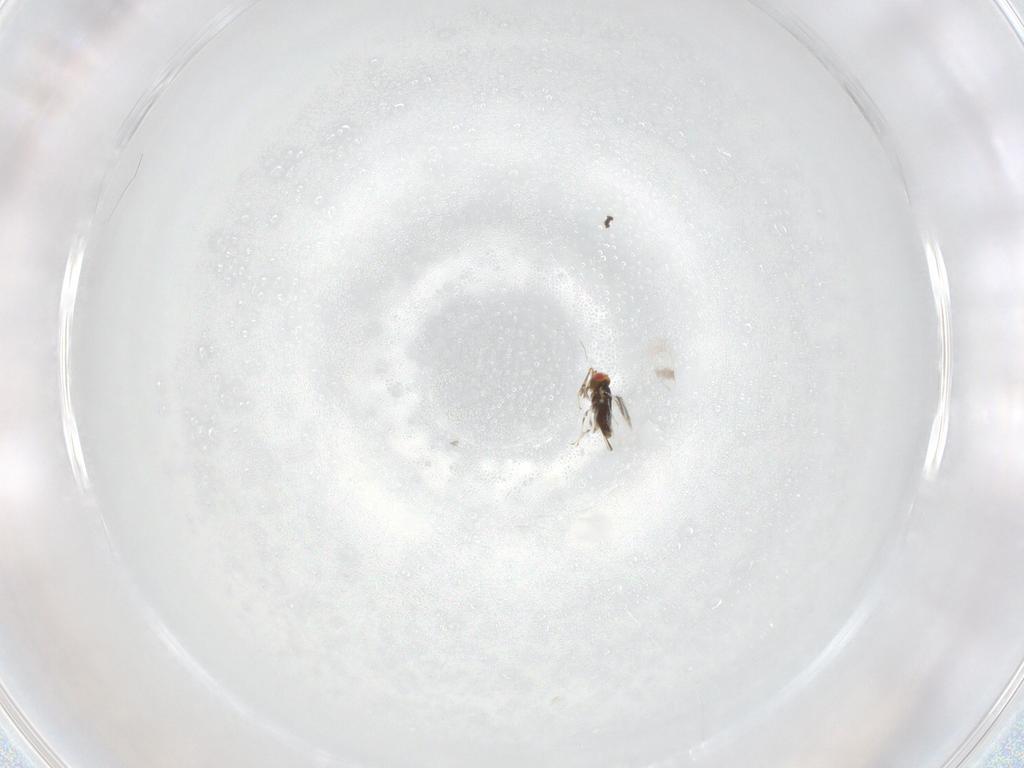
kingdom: Animalia
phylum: Arthropoda
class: Insecta
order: Hymenoptera
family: Azotidae
